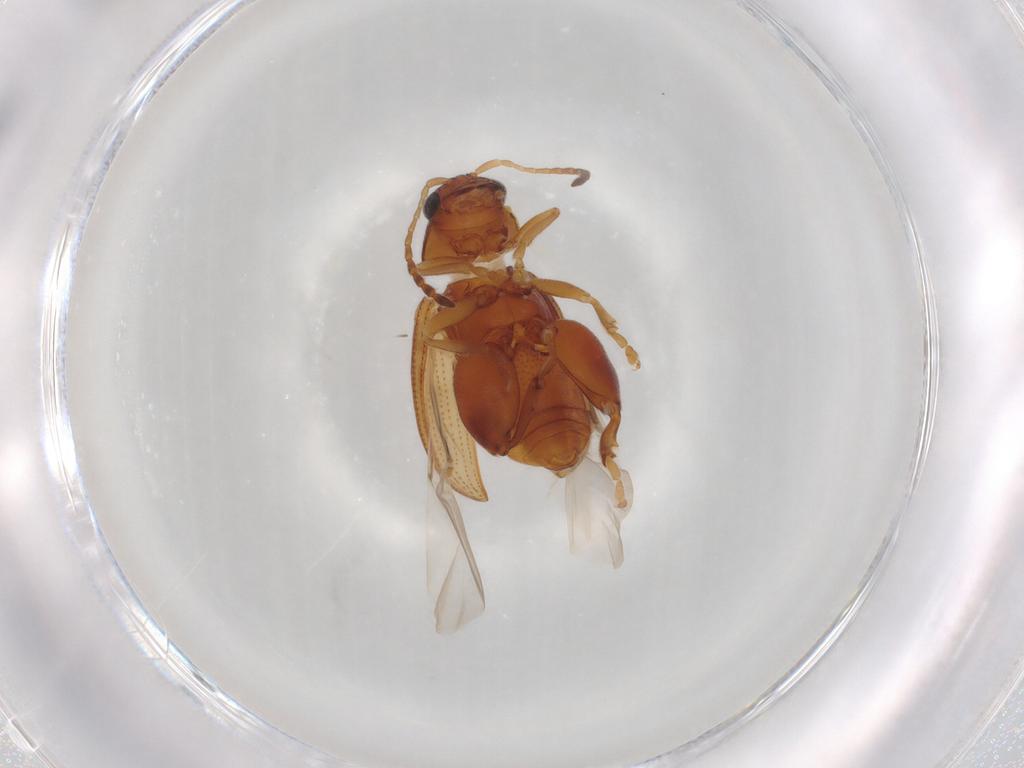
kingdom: Animalia
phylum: Arthropoda
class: Insecta
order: Coleoptera
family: Chrysomelidae
